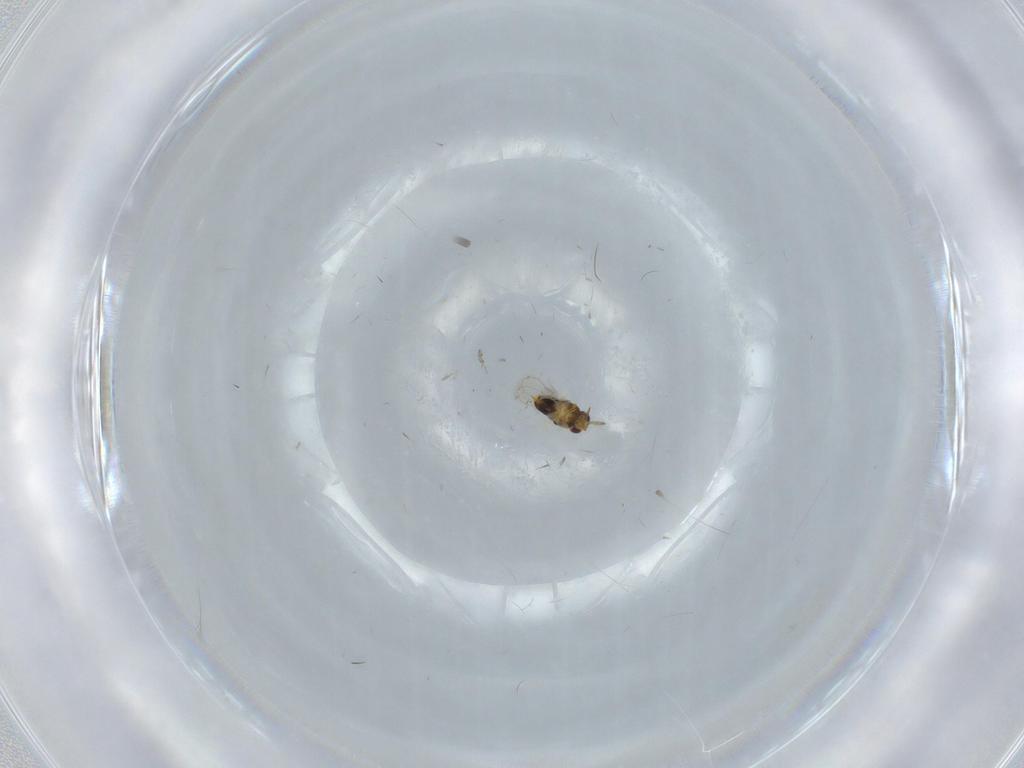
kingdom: Animalia
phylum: Arthropoda
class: Insecta
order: Hymenoptera
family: Aphelinidae
